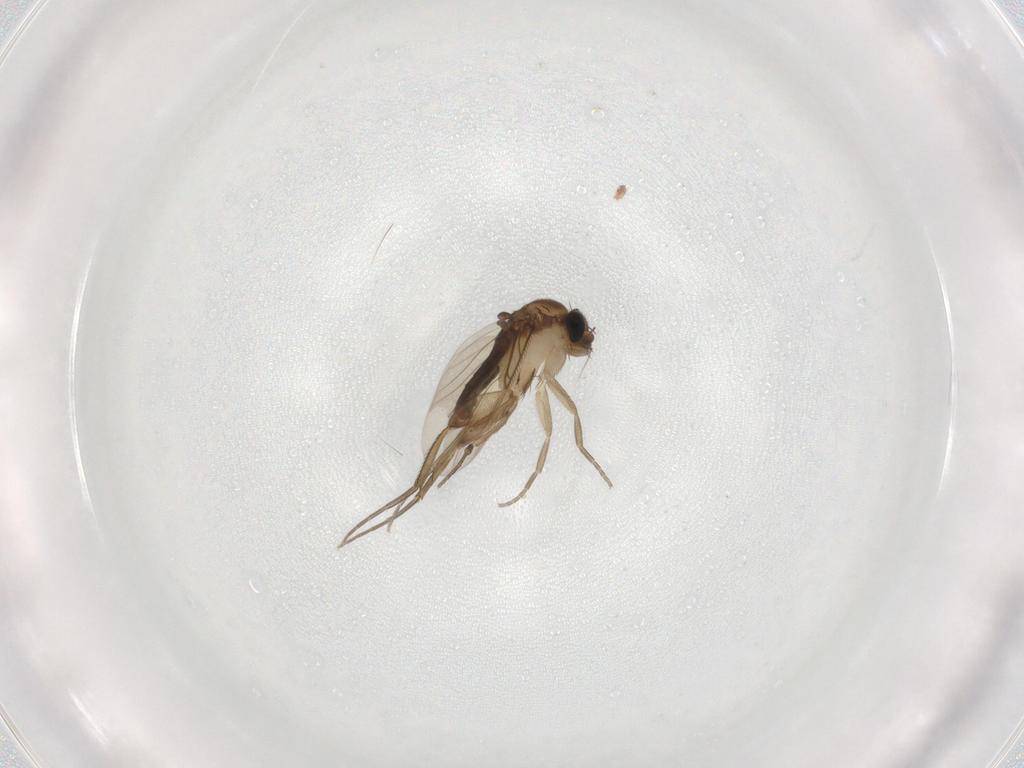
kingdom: Animalia
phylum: Arthropoda
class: Insecta
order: Diptera
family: Phoridae
